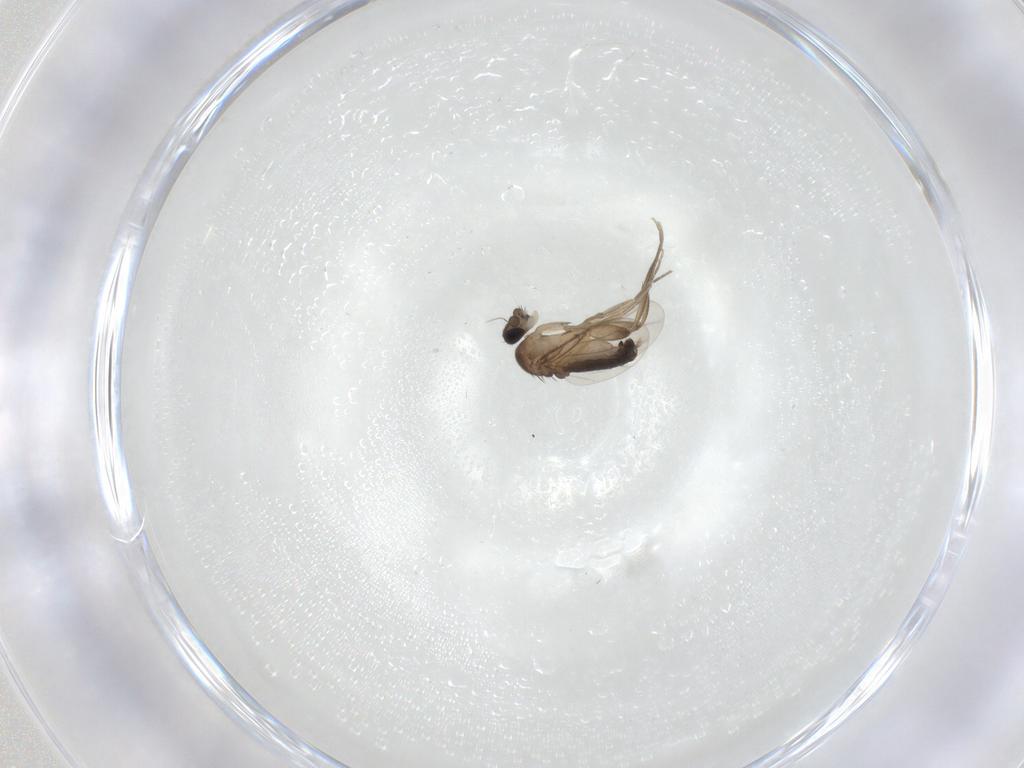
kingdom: Animalia
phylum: Arthropoda
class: Insecta
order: Diptera
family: Phoridae
